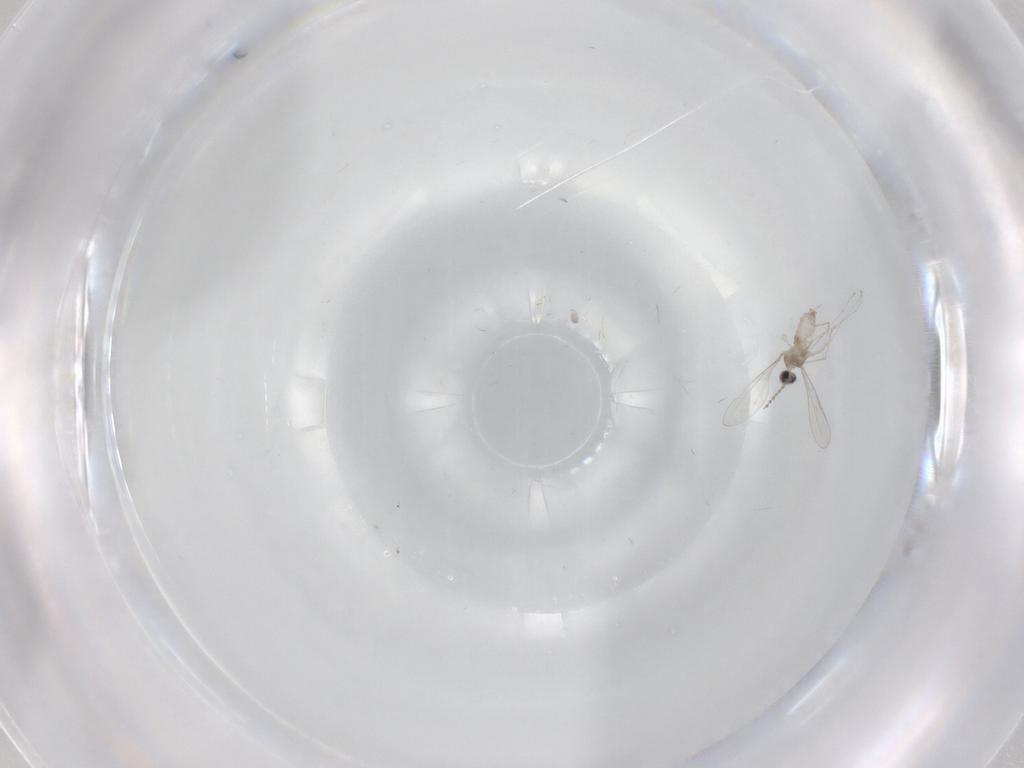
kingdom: Animalia
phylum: Arthropoda
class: Insecta
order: Diptera
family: Cecidomyiidae
